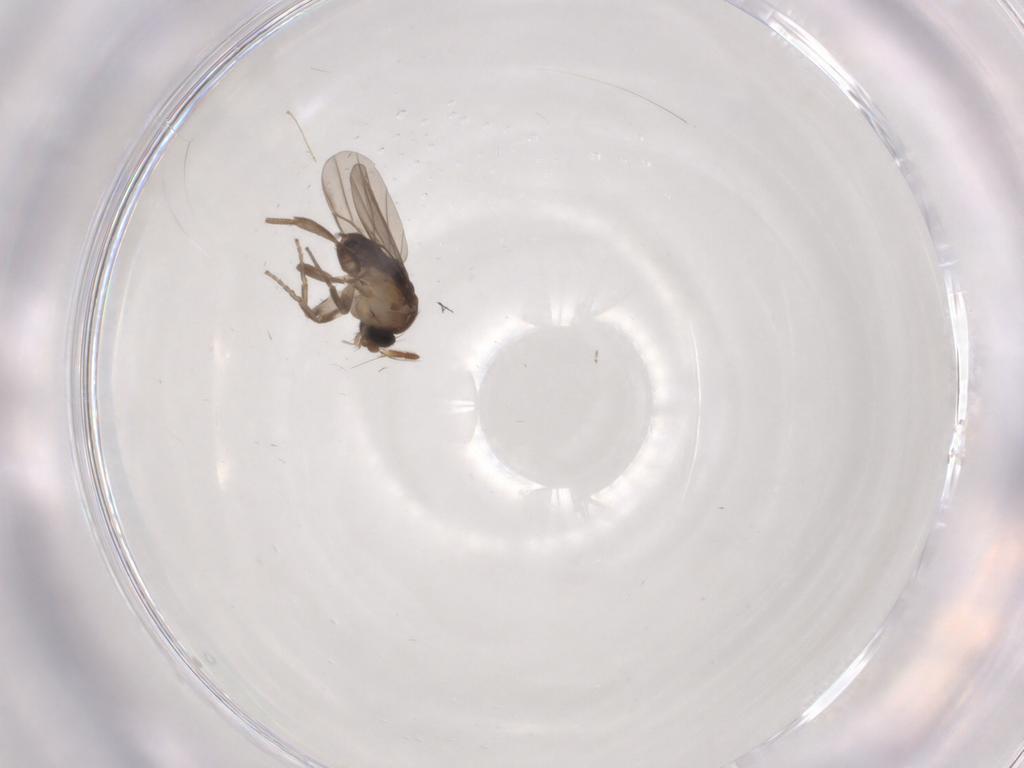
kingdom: Animalia
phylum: Arthropoda
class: Insecta
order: Diptera
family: Cecidomyiidae
